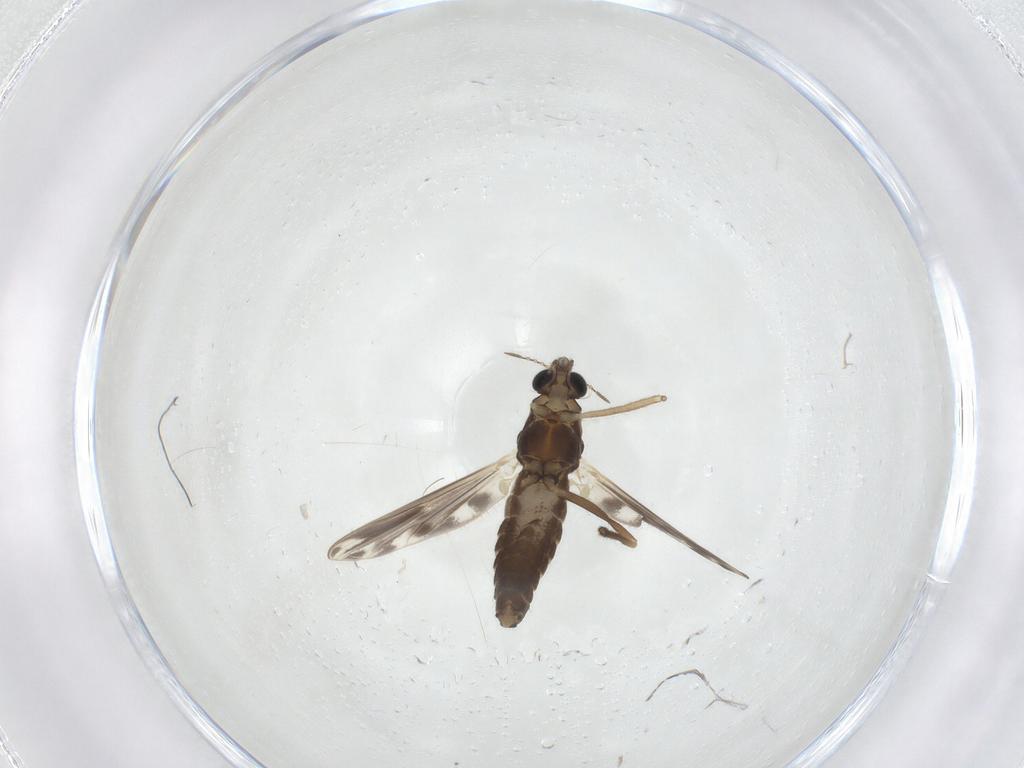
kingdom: Animalia
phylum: Arthropoda
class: Insecta
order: Diptera
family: Chironomidae
